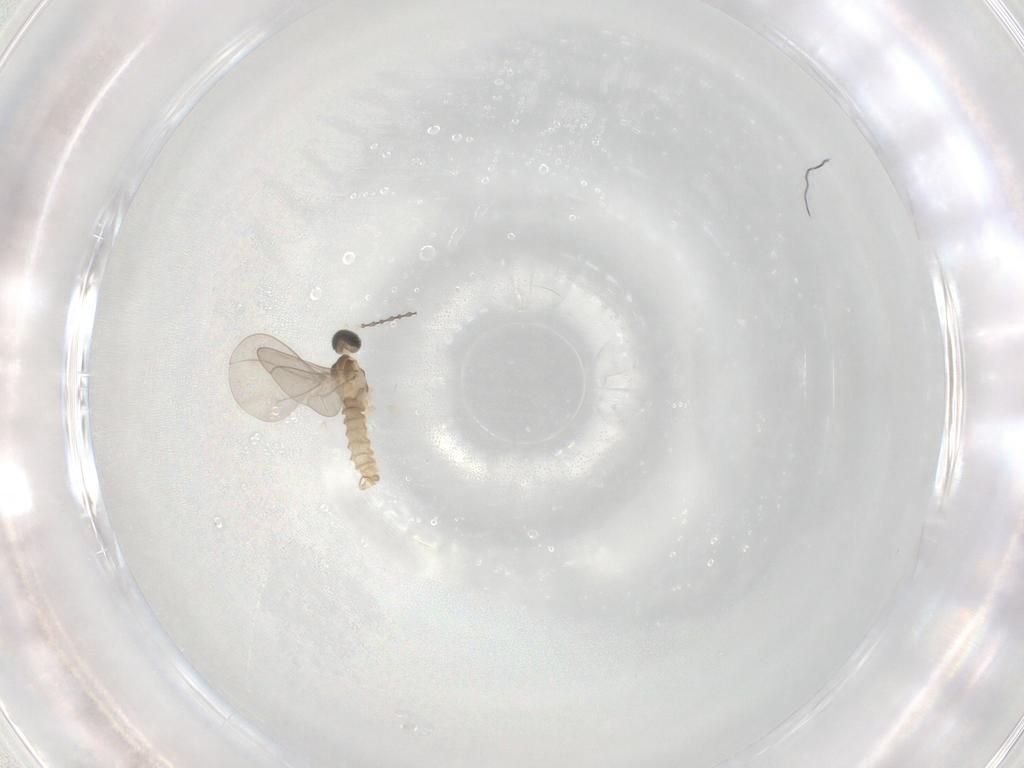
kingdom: Animalia
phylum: Arthropoda
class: Insecta
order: Diptera
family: Cecidomyiidae
